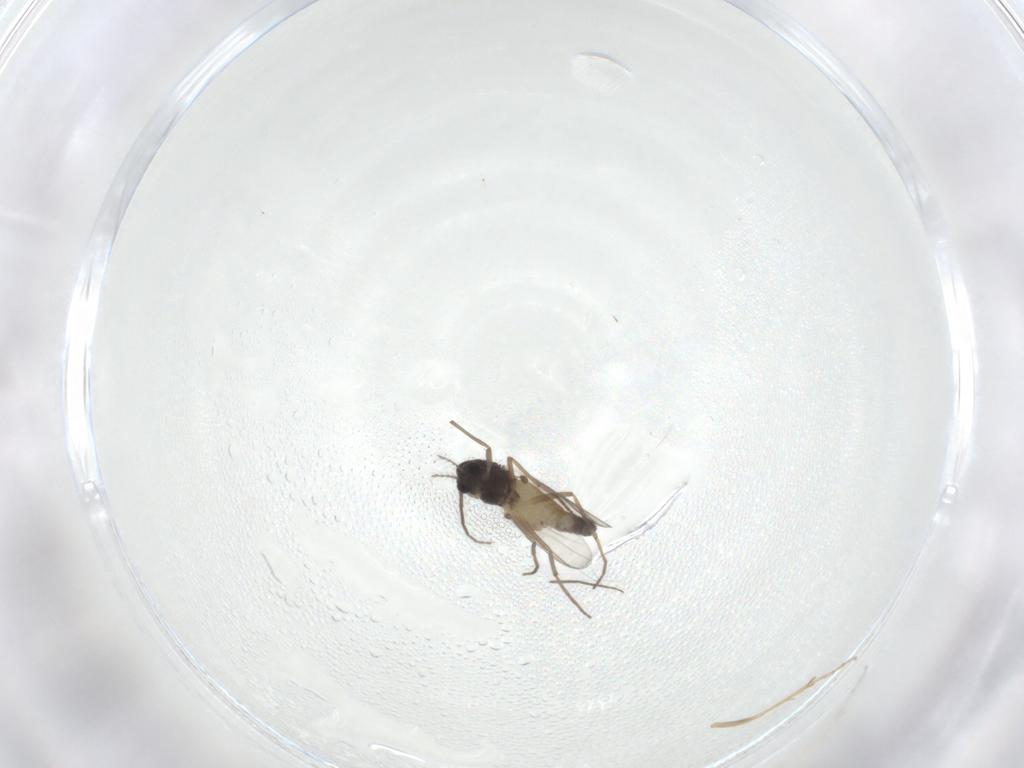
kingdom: Animalia
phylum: Arthropoda
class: Insecta
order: Diptera
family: Chironomidae
